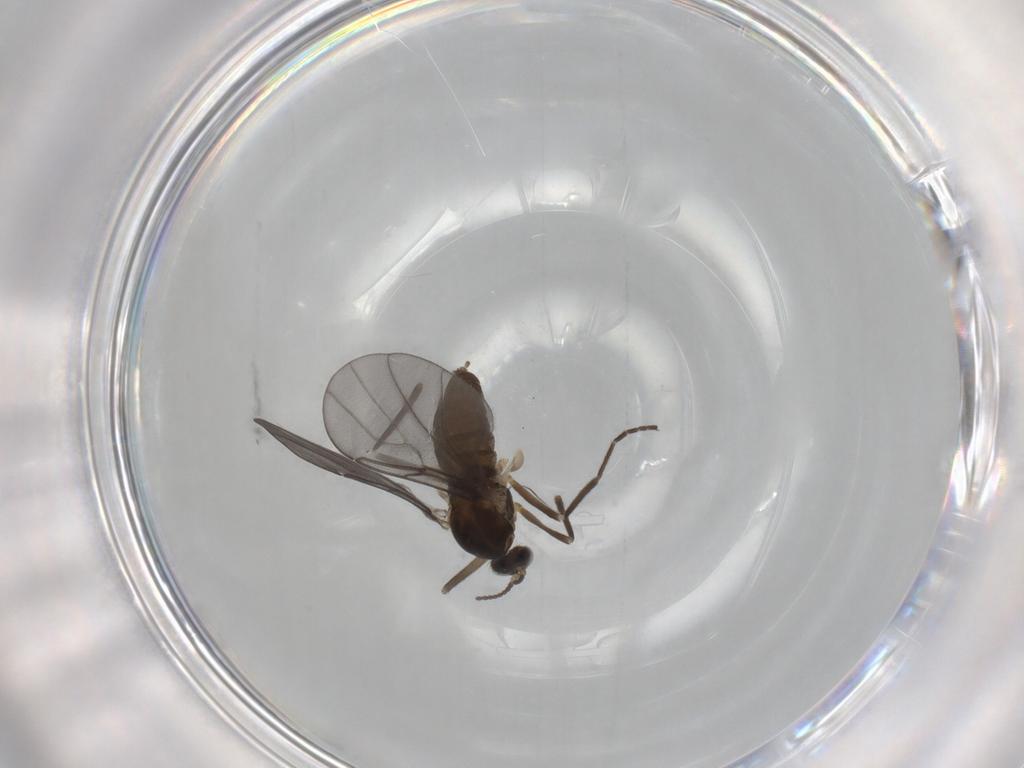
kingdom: Animalia
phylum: Arthropoda
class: Insecta
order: Diptera
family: Cecidomyiidae
